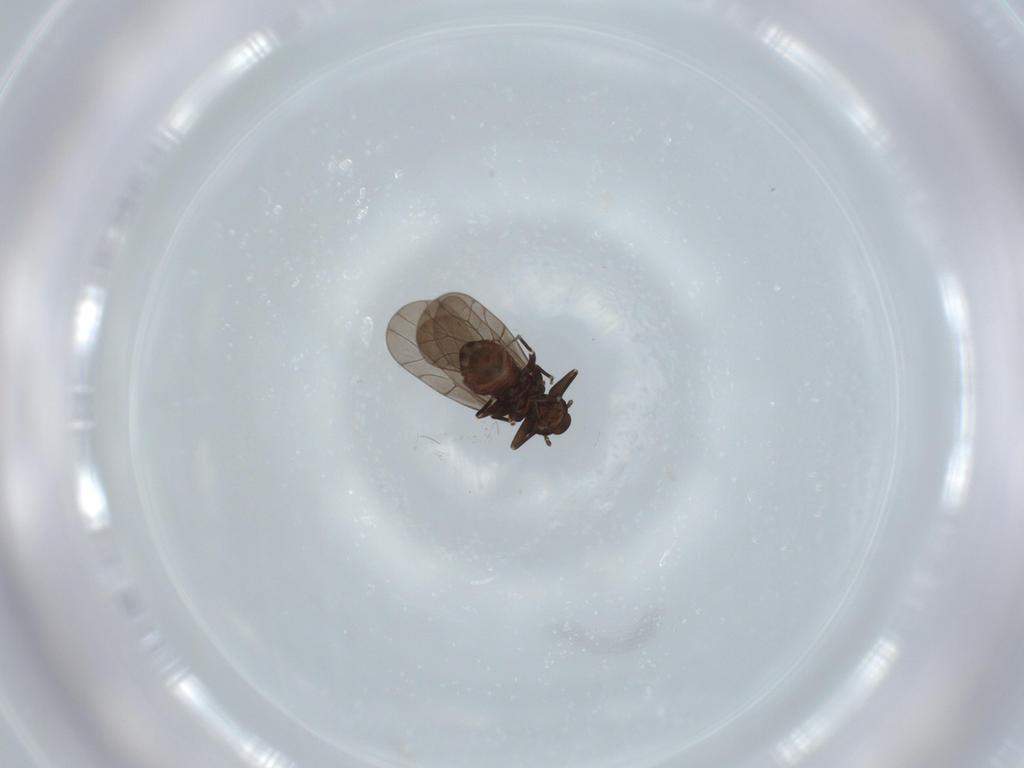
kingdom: Animalia
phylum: Arthropoda
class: Insecta
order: Psocodea
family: Lepidopsocidae
